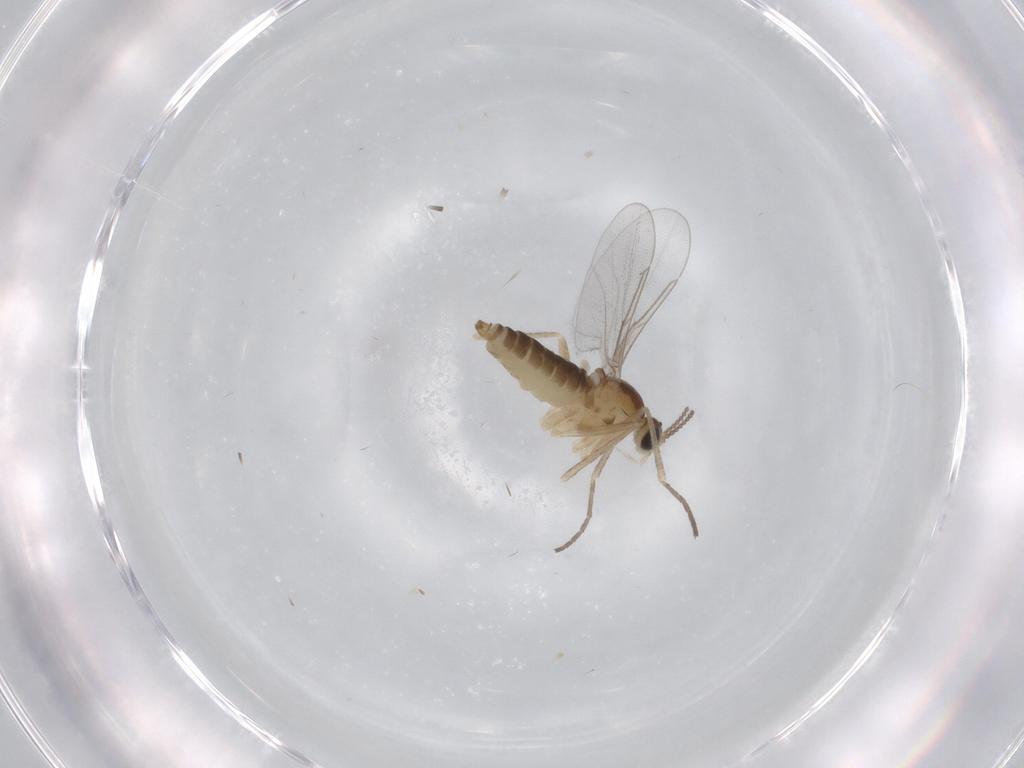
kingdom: Animalia
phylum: Arthropoda
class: Insecta
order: Diptera
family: Cecidomyiidae
